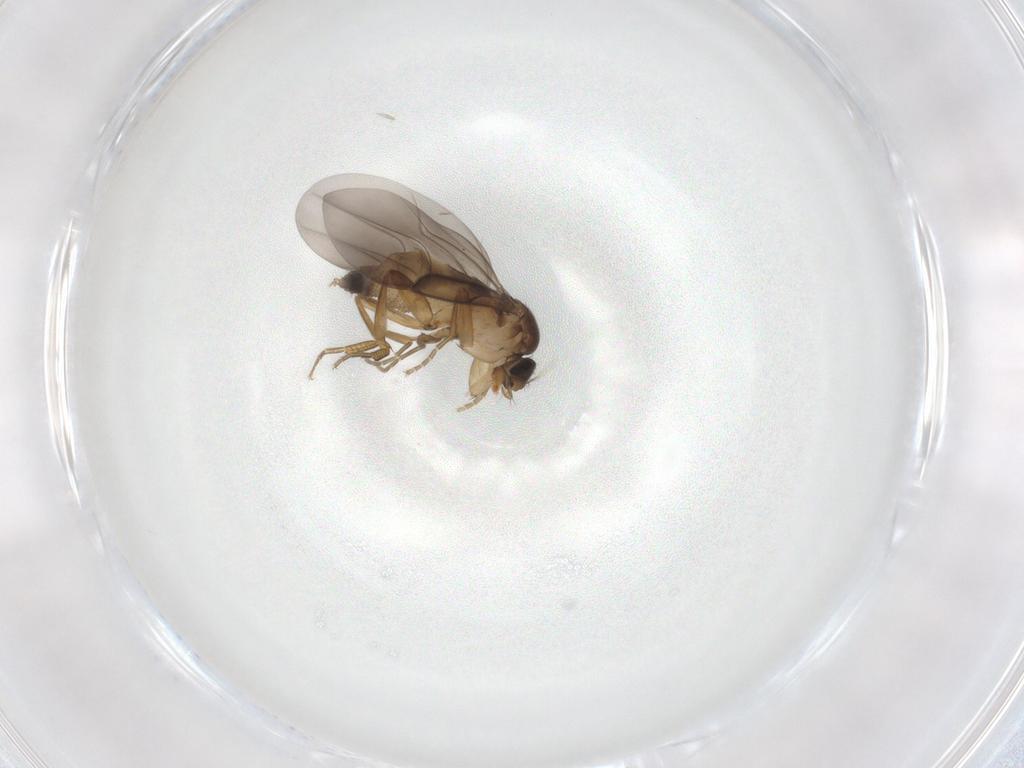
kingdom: Animalia
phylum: Arthropoda
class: Insecta
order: Diptera
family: Phoridae
